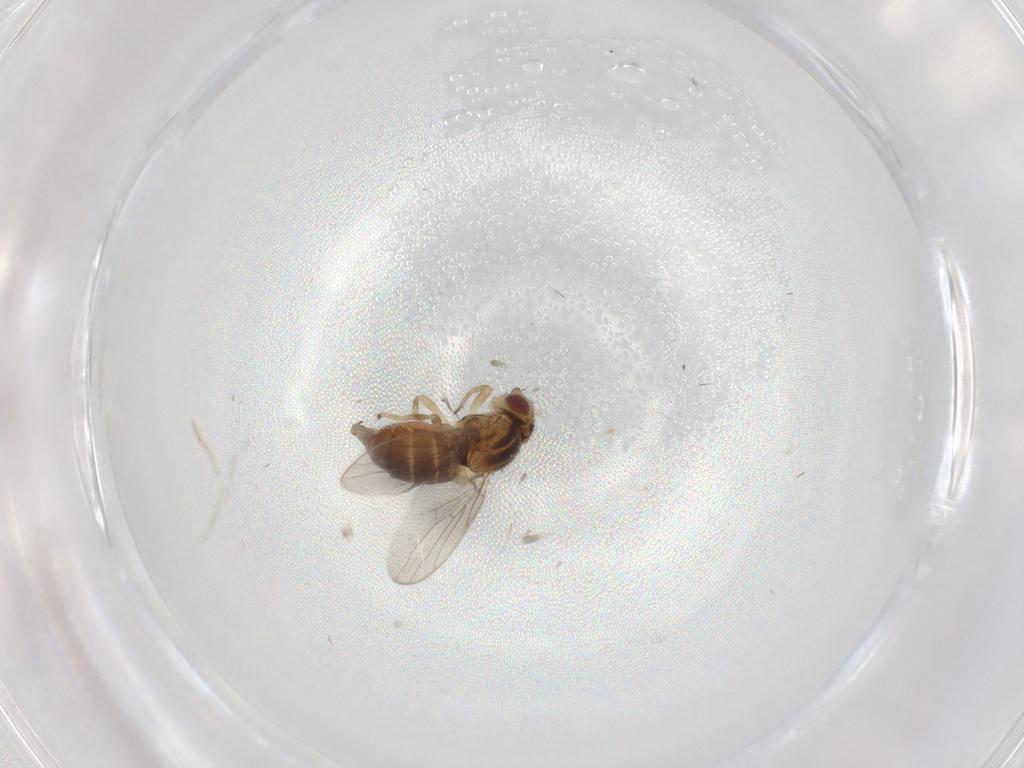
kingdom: Animalia
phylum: Arthropoda
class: Insecta
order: Diptera
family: Chloropidae
